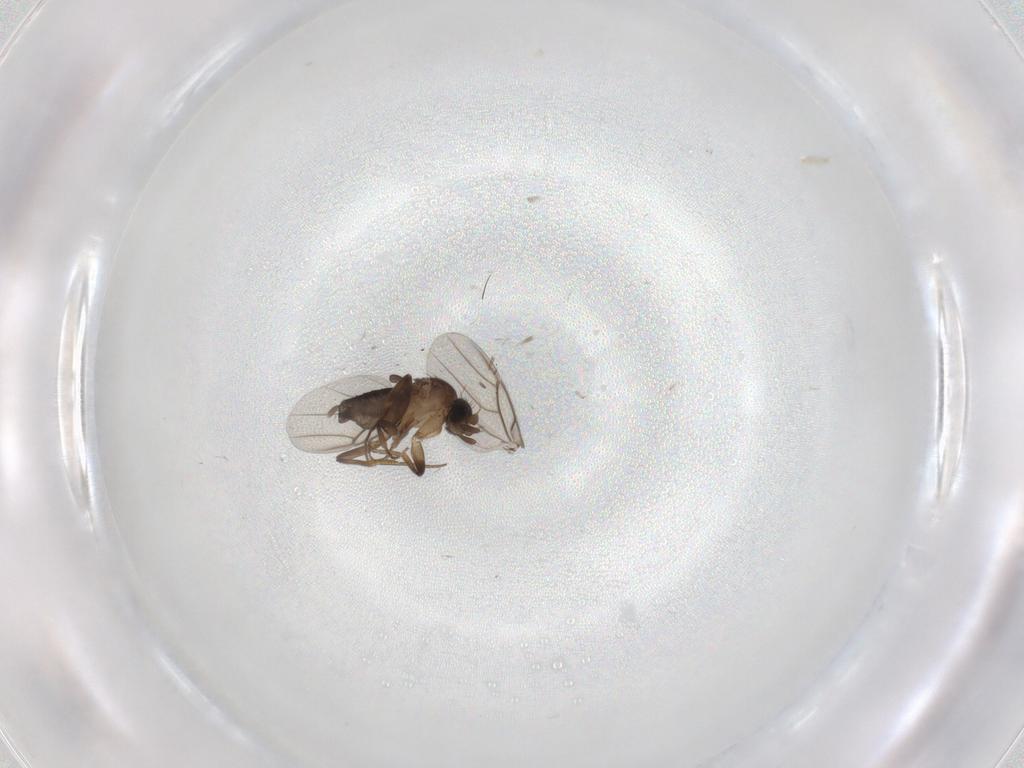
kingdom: Animalia
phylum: Arthropoda
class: Insecta
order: Diptera
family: Phoridae
